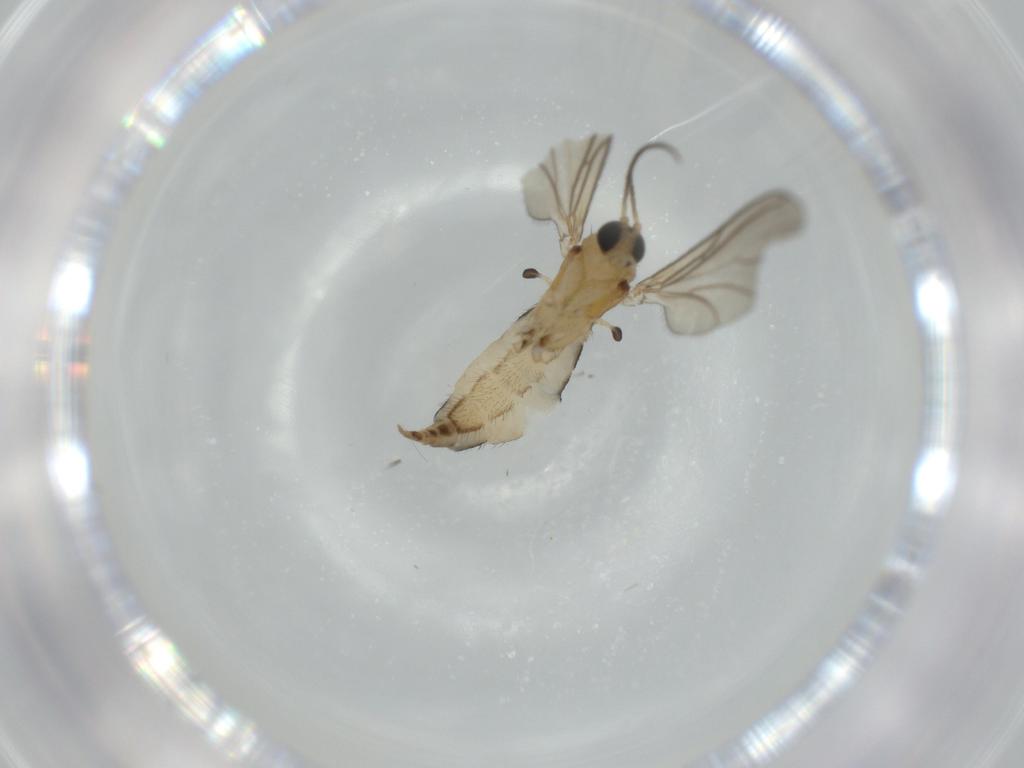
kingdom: Animalia
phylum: Arthropoda
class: Insecta
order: Diptera
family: Sciaridae
